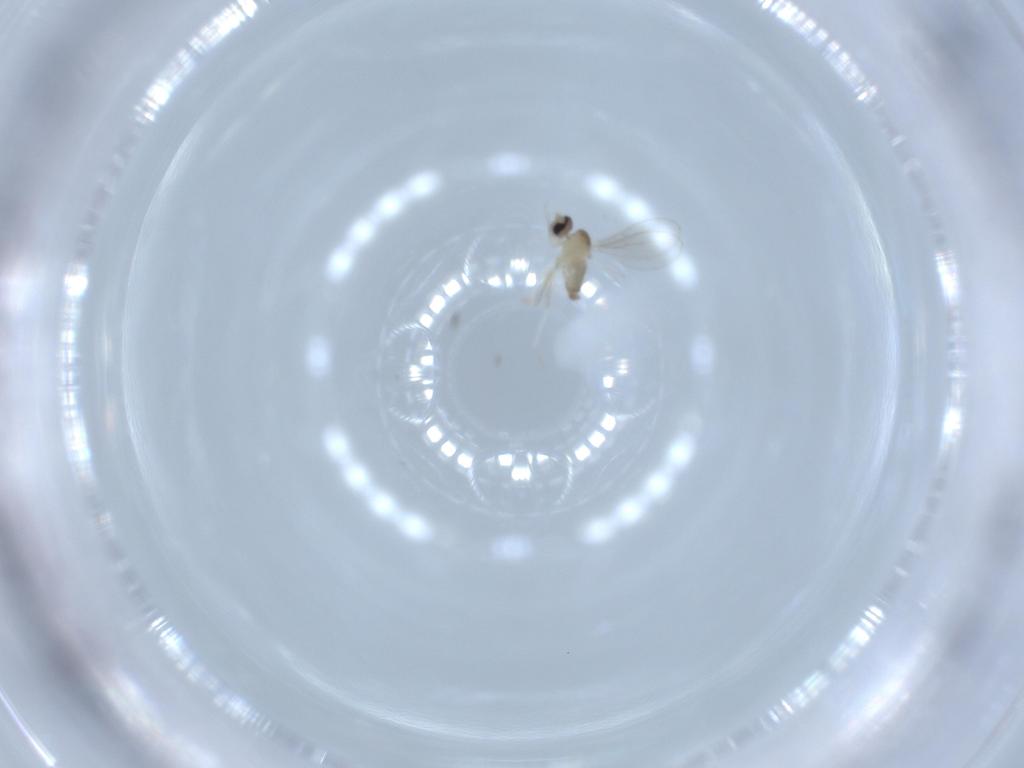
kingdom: Animalia
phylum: Arthropoda
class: Insecta
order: Diptera
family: Cecidomyiidae
